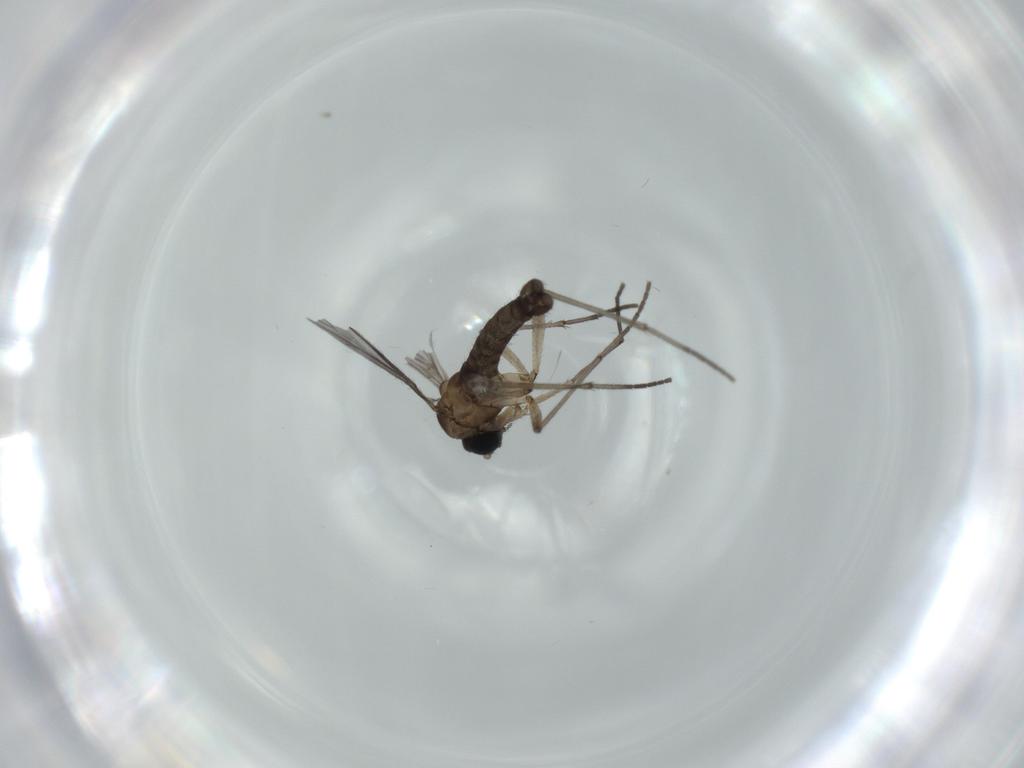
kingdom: Animalia
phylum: Arthropoda
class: Insecta
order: Diptera
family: Sciaridae
